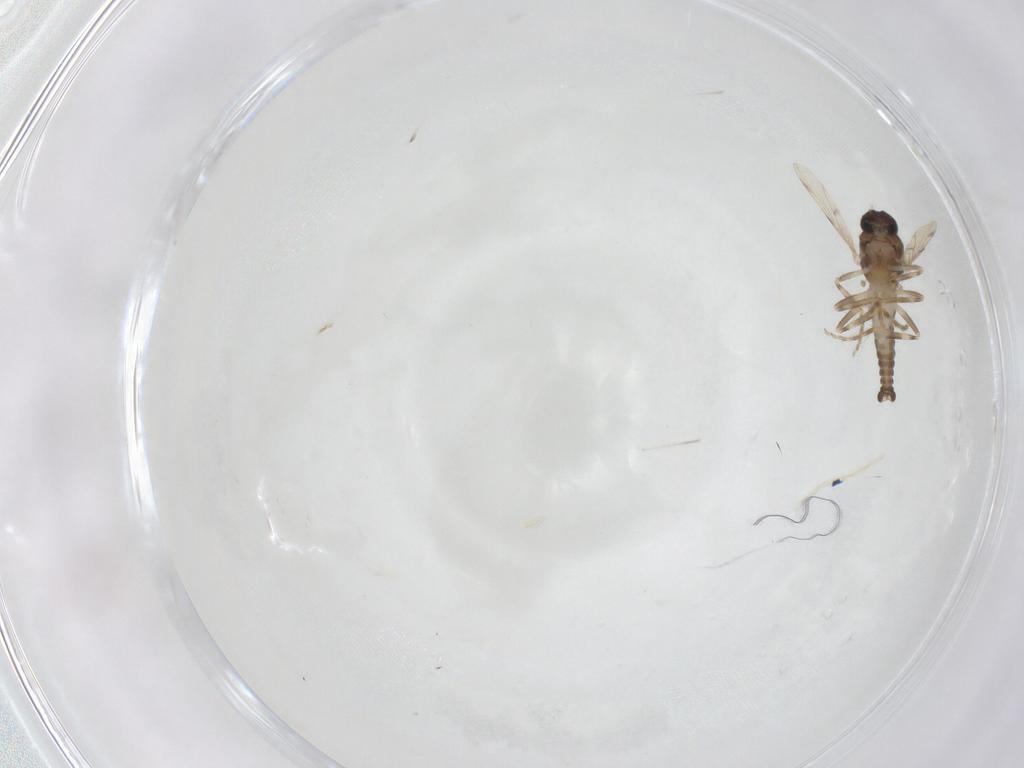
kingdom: Animalia
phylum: Arthropoda
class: Insecta
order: Diptera
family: Ceratopogonidae
